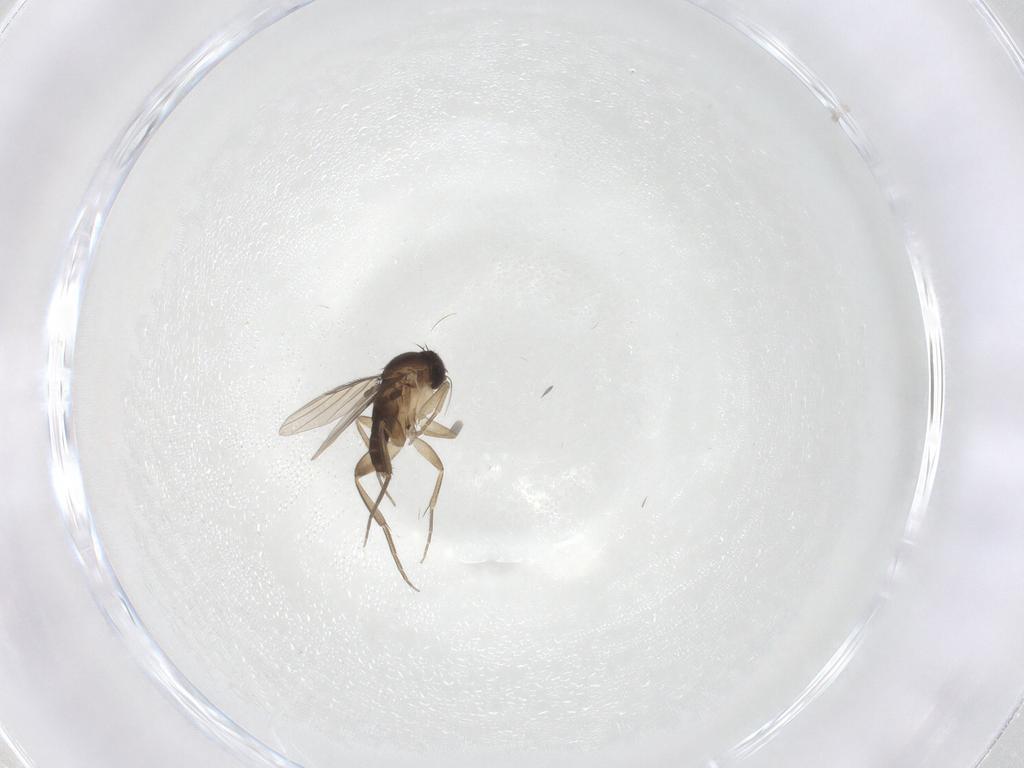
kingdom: Animalia
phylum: Arthropoda
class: Insecta
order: Diptera
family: Phoridae
